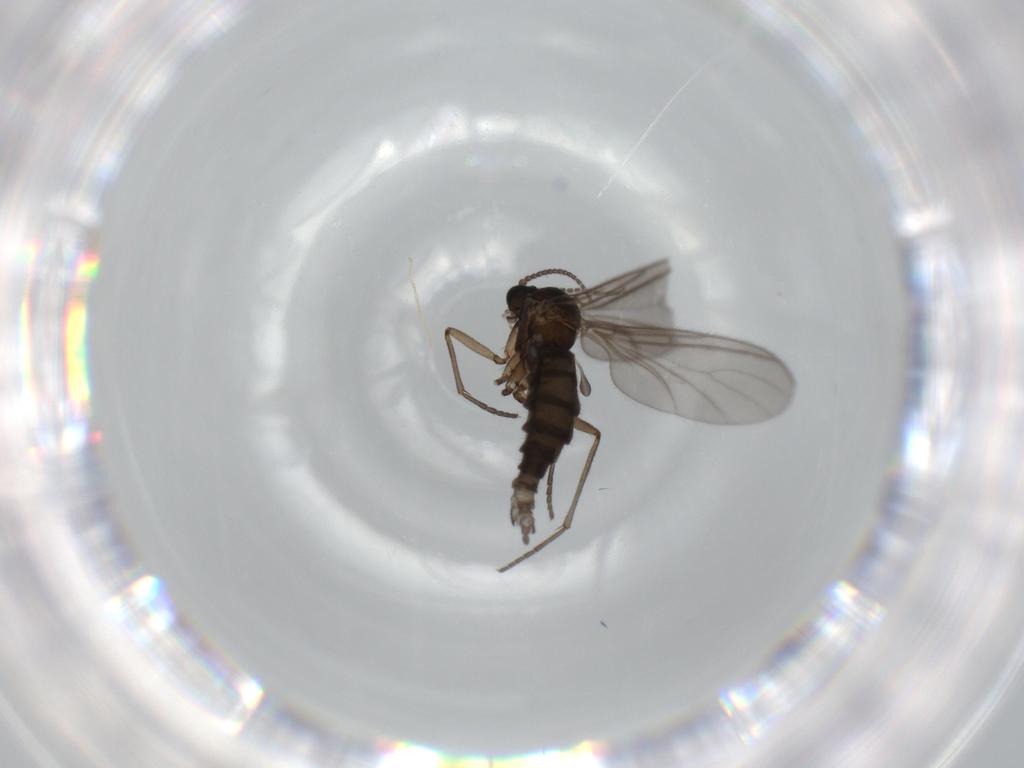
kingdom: Animalia
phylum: Arthropoda
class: Insecta
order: Diptera
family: Sciaridae
